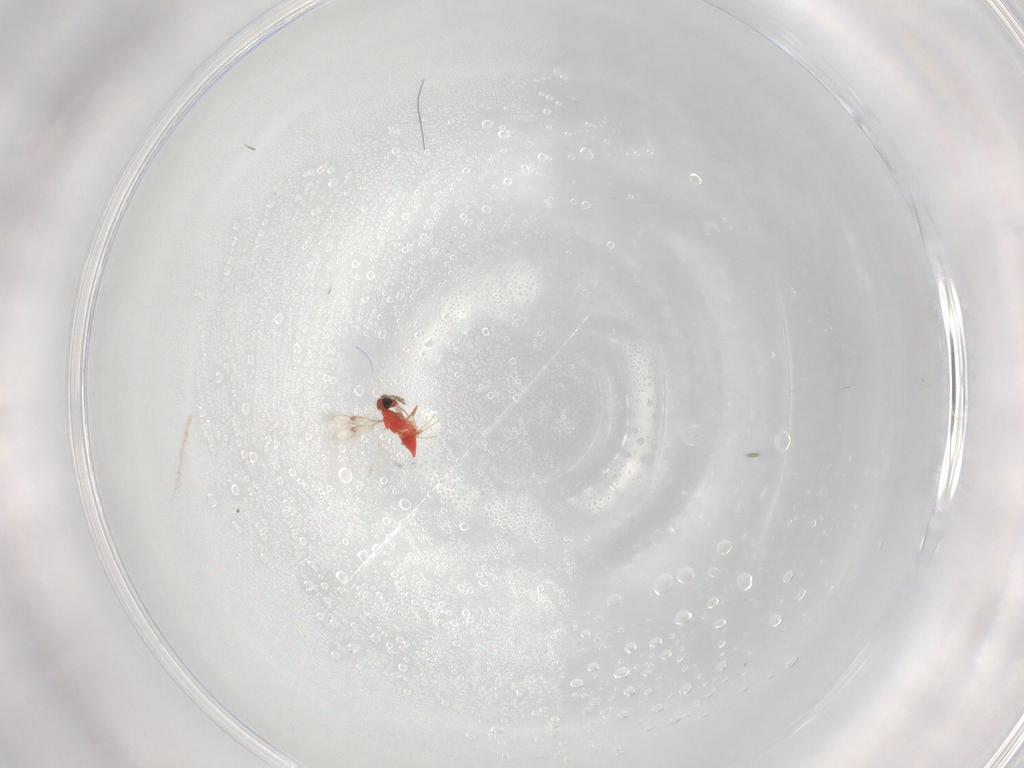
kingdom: Animalia
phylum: Arthropoda
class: Insecta
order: Hymenoptera
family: Trichogrammatidae
